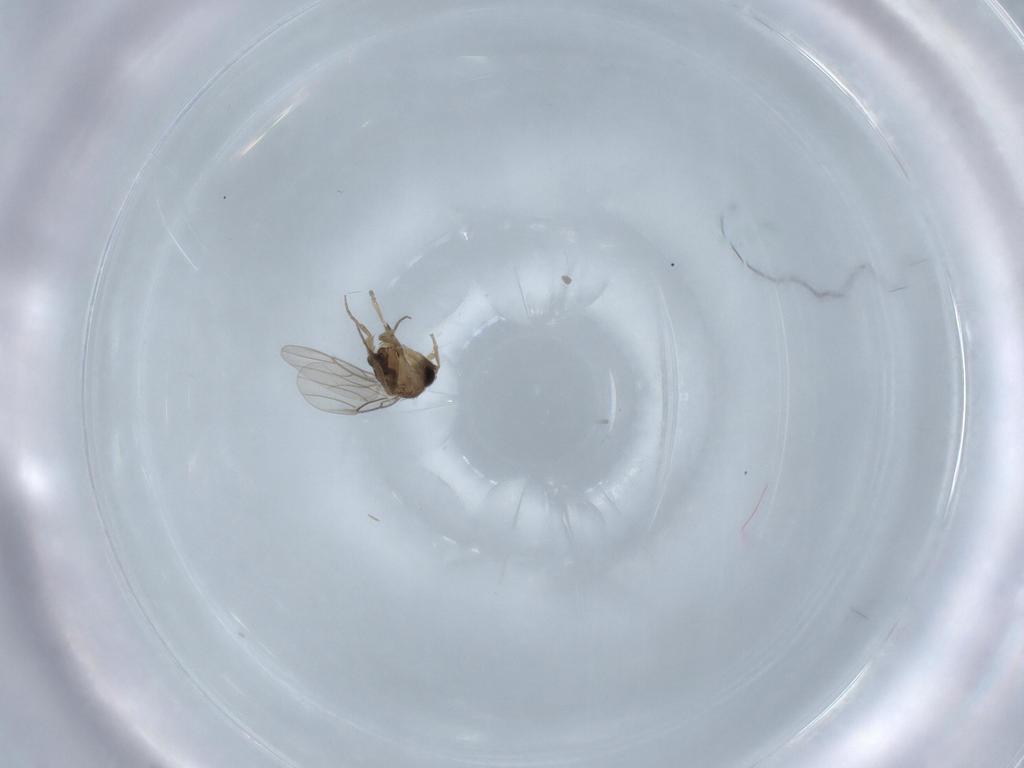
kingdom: Animalia
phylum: Arthropoda
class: Insecta
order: Diptera
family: Phoridae
